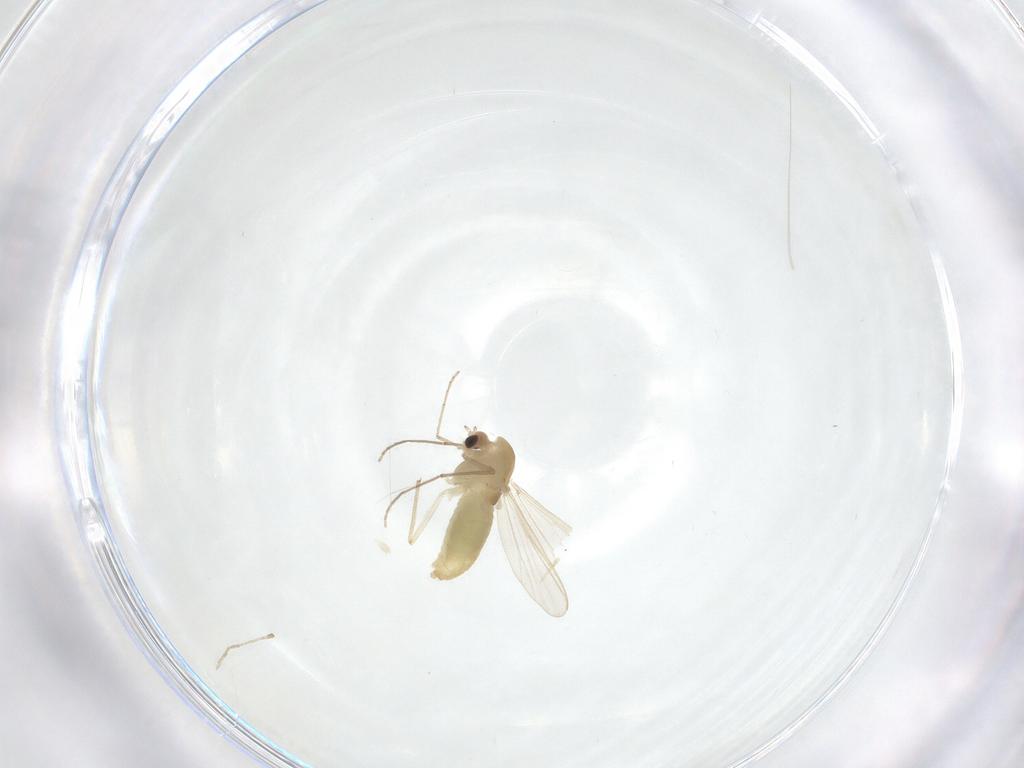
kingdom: Animalia
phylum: Arthropoda
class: Insecta
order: Diptera
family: Chironomidae
